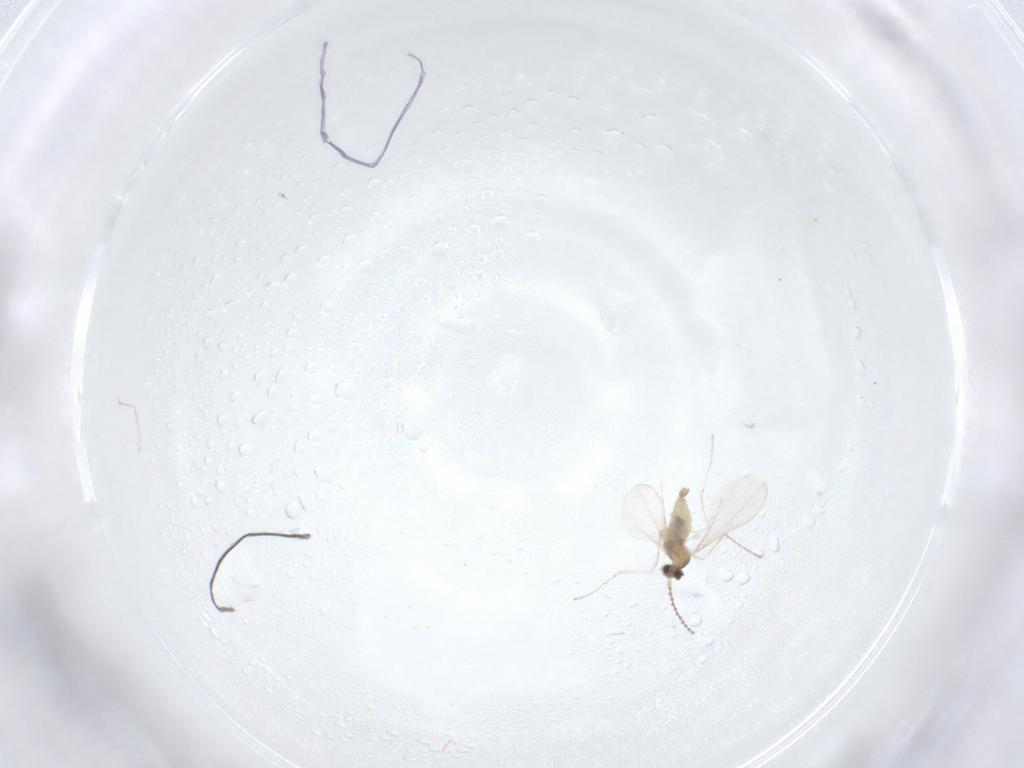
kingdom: Animalia
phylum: Arthropoda
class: Insecta
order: Diptera
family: Cecidomyiidae
